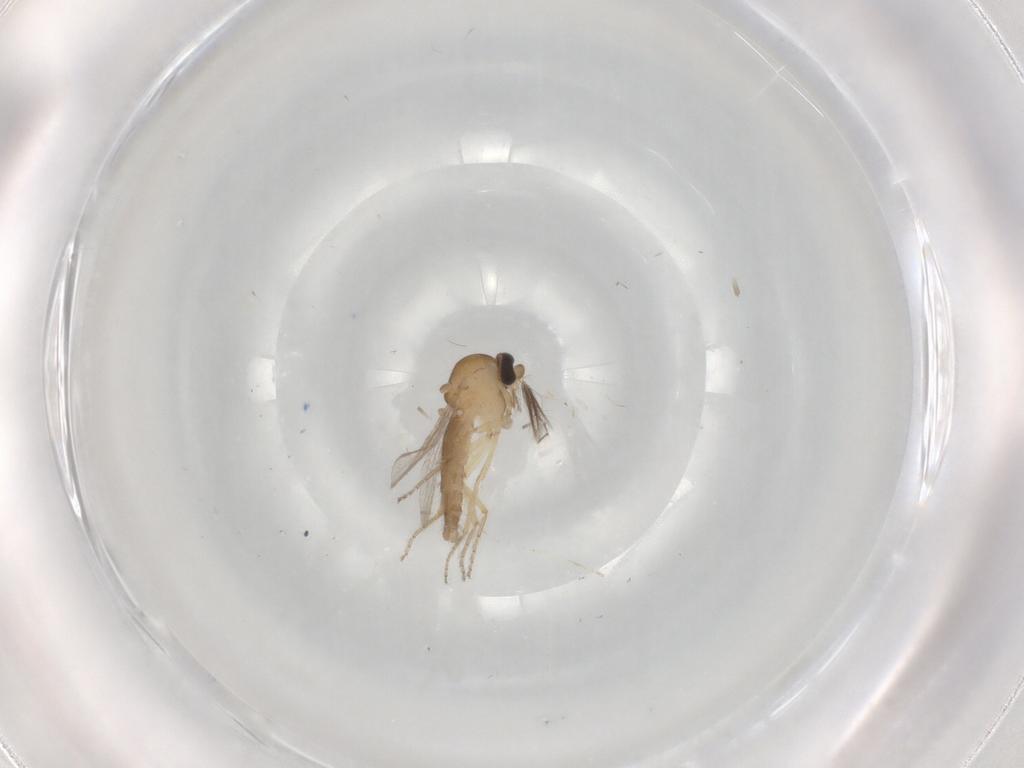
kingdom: Animalia
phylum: Arthropoda
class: Insecta
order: Diptera
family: Ceratopogonidae
